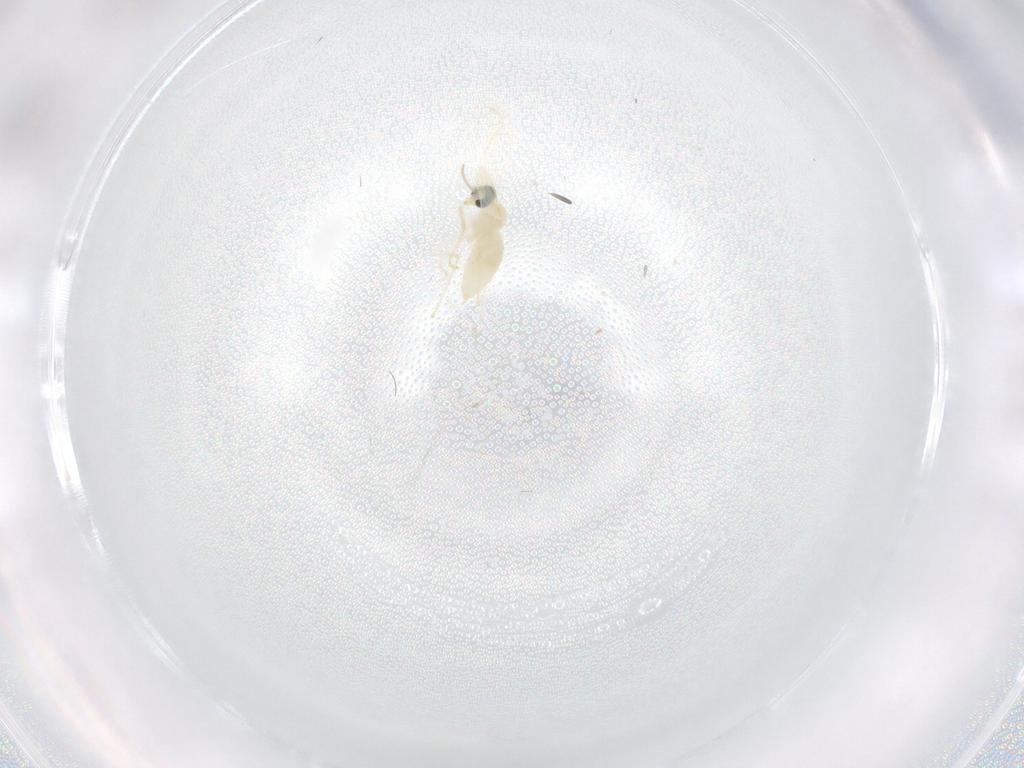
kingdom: Animalia
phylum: Arthropoda
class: Insecta
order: Diptera
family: Cecidomyiidae
